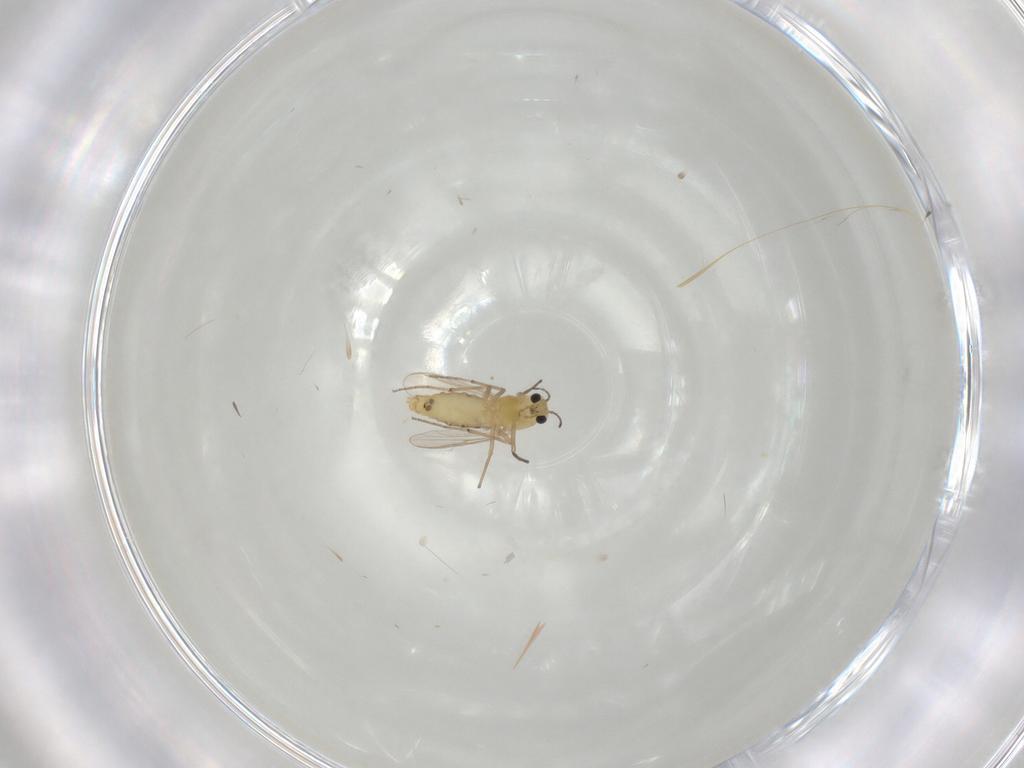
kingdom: Animalia
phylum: Arthropoda
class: Insecta
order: Diptera
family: Chironomidae
